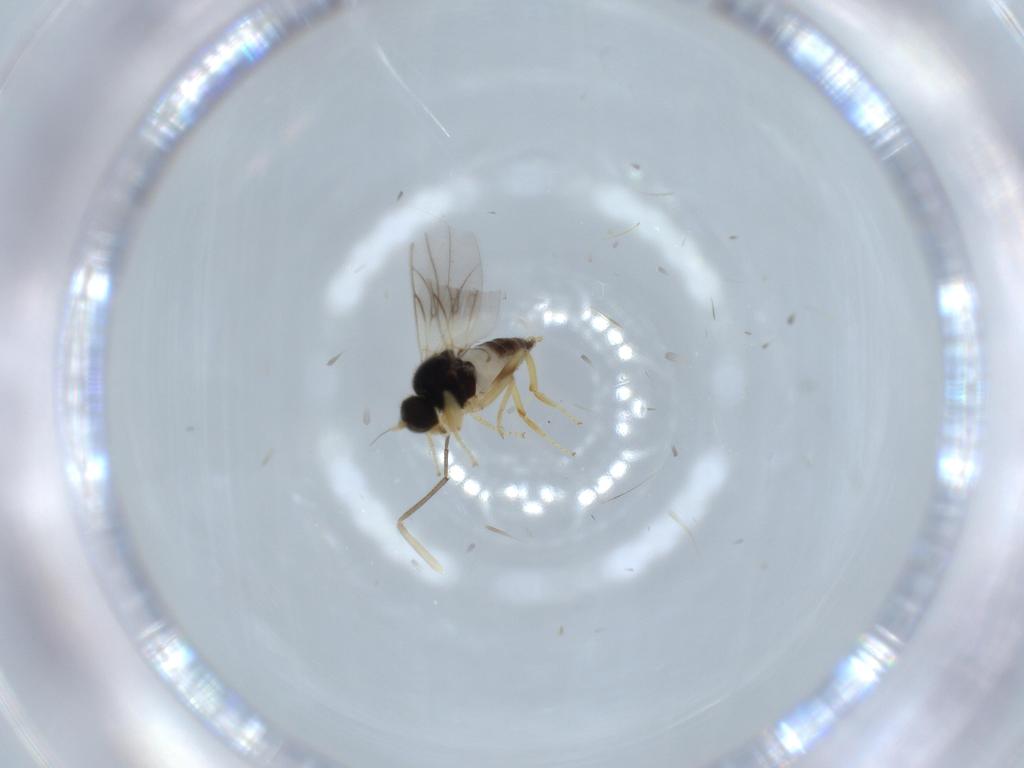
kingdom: Animalia
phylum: Arthropoda
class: Insecta
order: Diptera
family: Hybotidae
